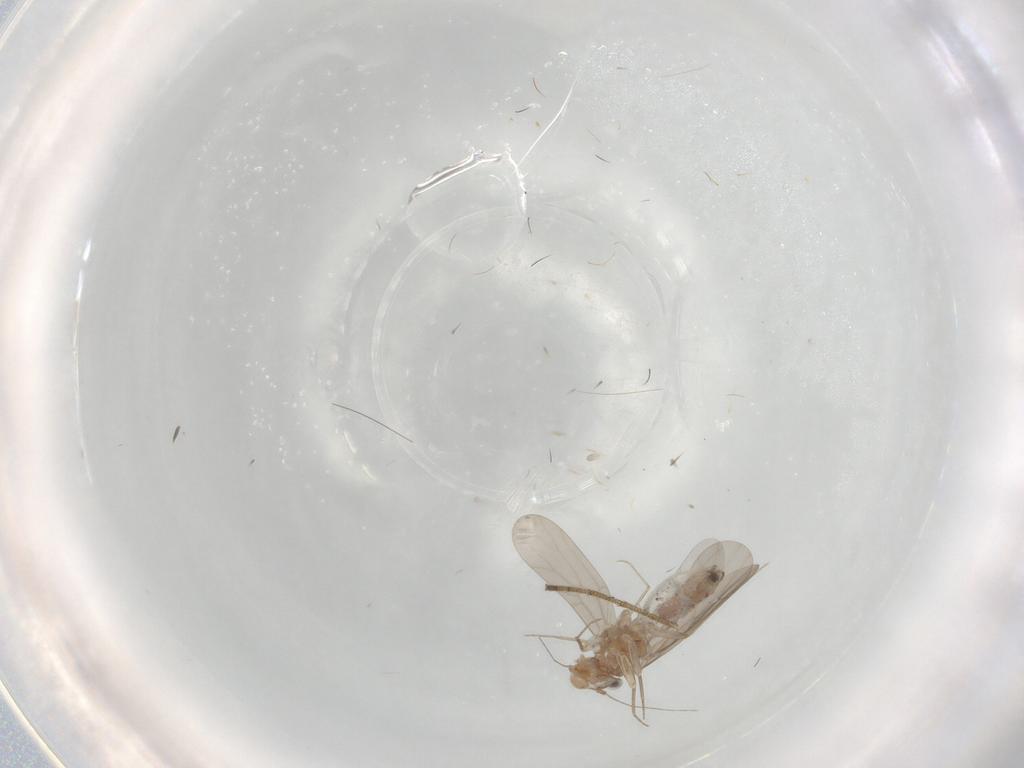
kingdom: Animalia
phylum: Arthropoda
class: Insecta
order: Psocodea
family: Lepidopsocidae
